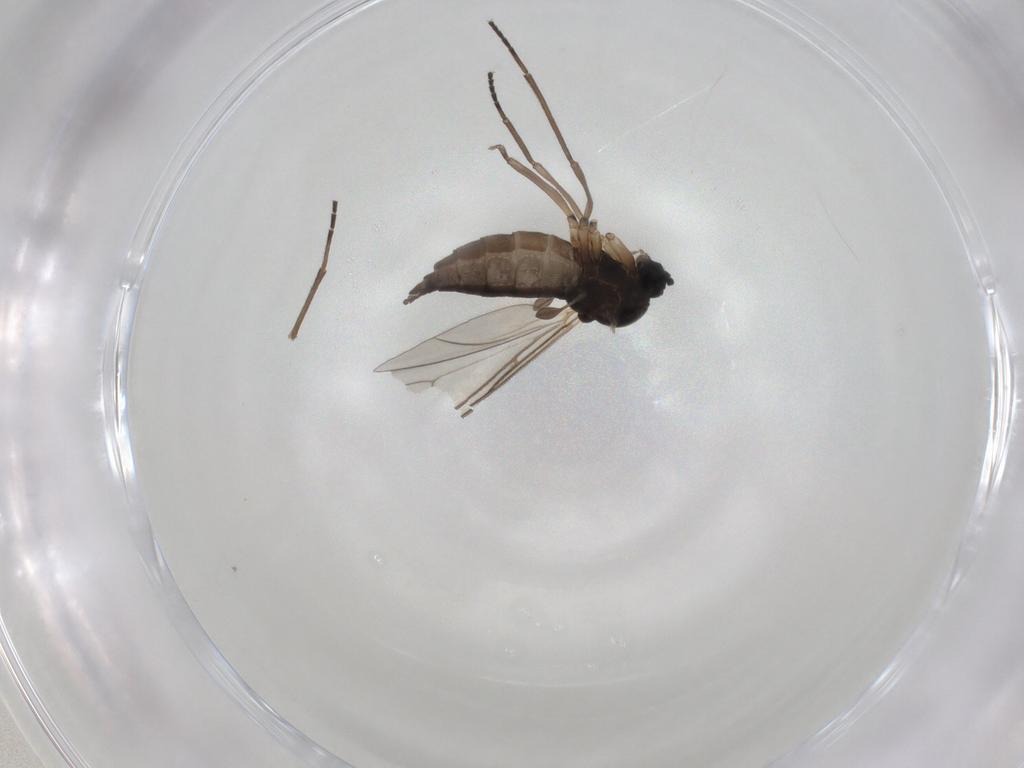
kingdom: Animalia
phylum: Arthropoda
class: Insecta
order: Diptera
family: Sciaridae
